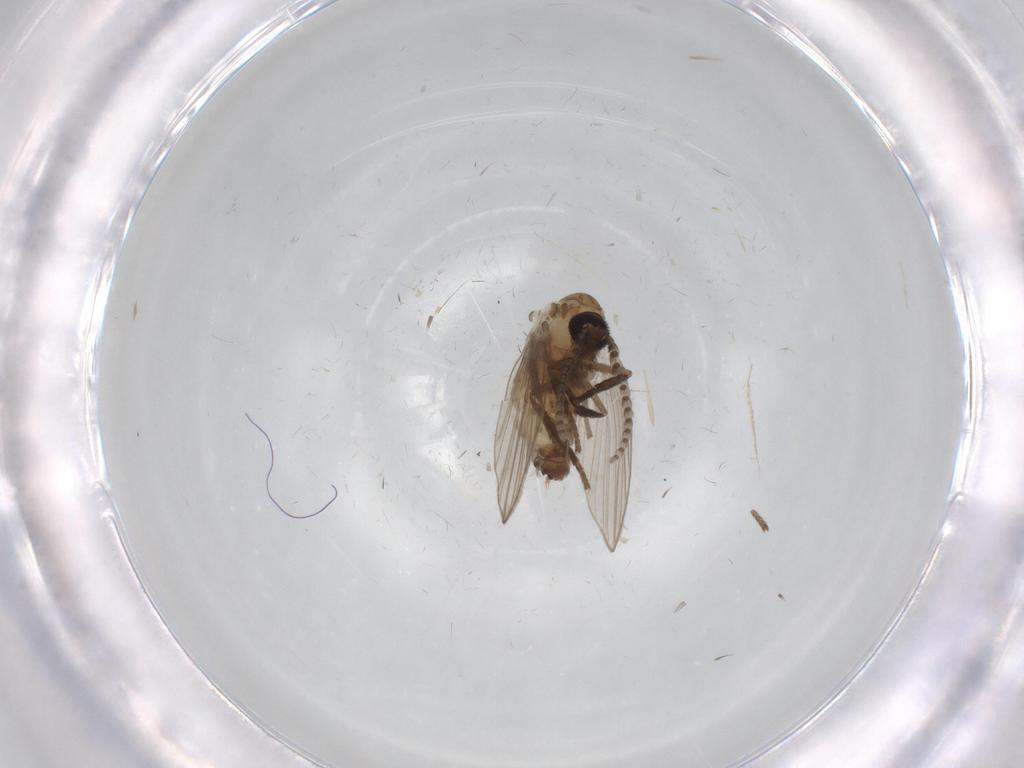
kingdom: Animalia
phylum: Arthropoda
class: Insecta
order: Diptera
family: Psychodidae
